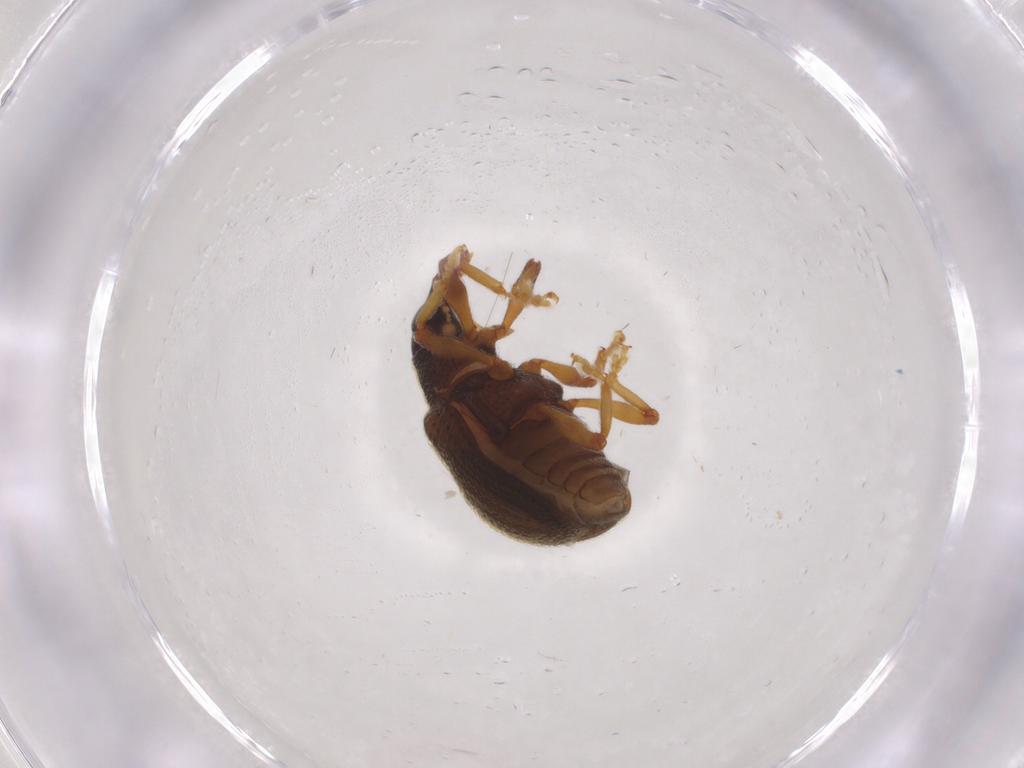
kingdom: Animalia
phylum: Arthropoda
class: Insecta
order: Coleoptera
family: Curculionidae
